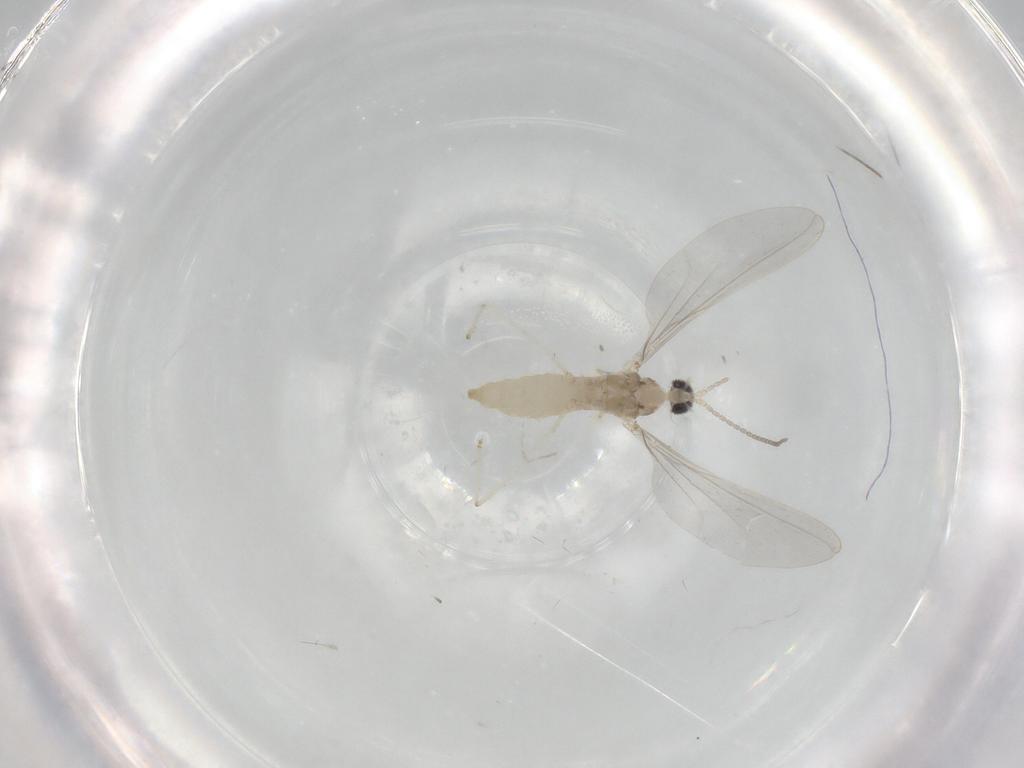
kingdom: Animalia
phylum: Arthropoda
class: Insecta
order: Diptera
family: Cecidomyiidae
